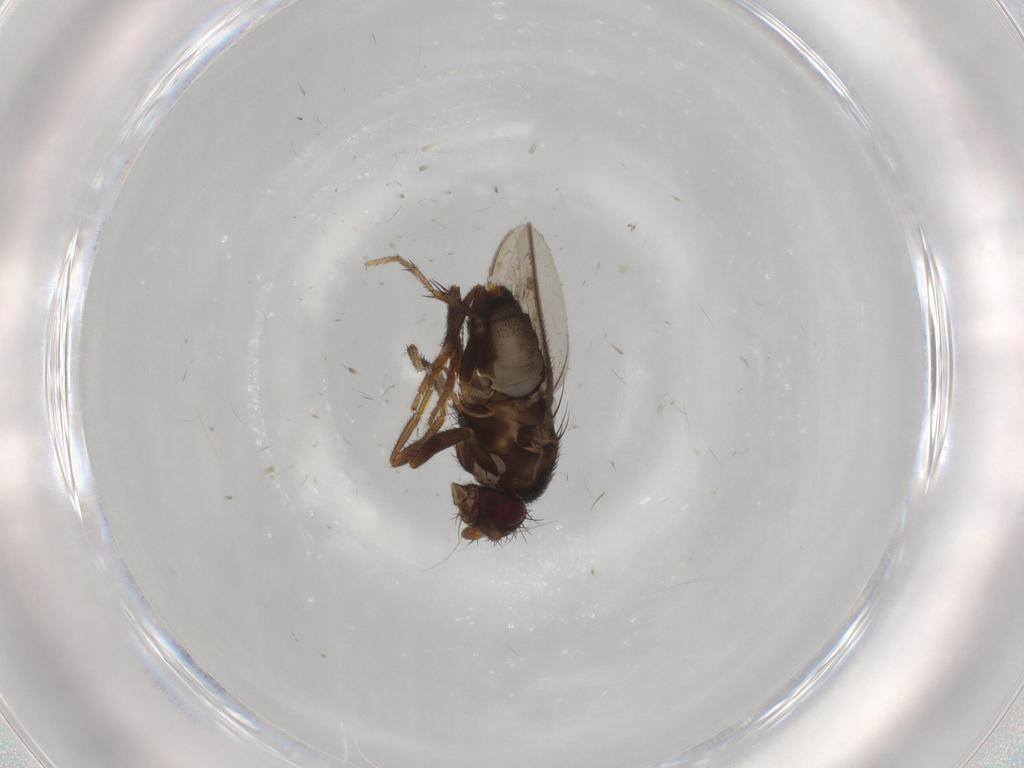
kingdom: Animalia
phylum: Arthropoda
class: Insecta
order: Diptera
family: Sphaeroceridae
